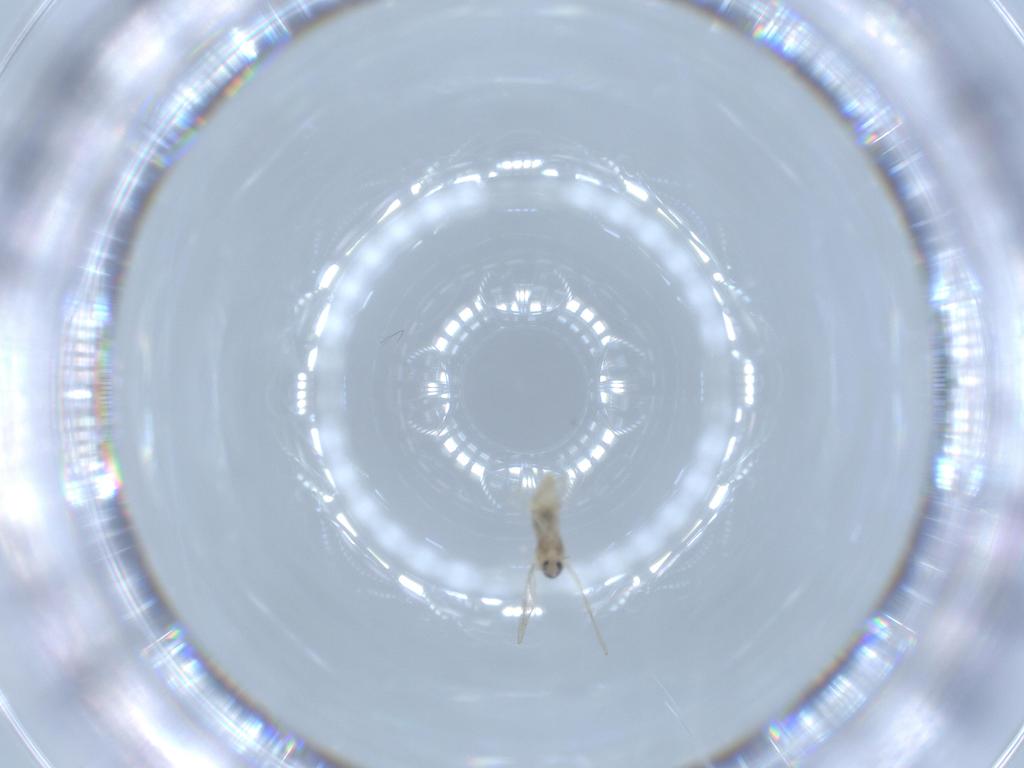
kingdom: Animalia
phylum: Arthropoda
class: Insecta
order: Diptera
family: Cecidomyiidae
